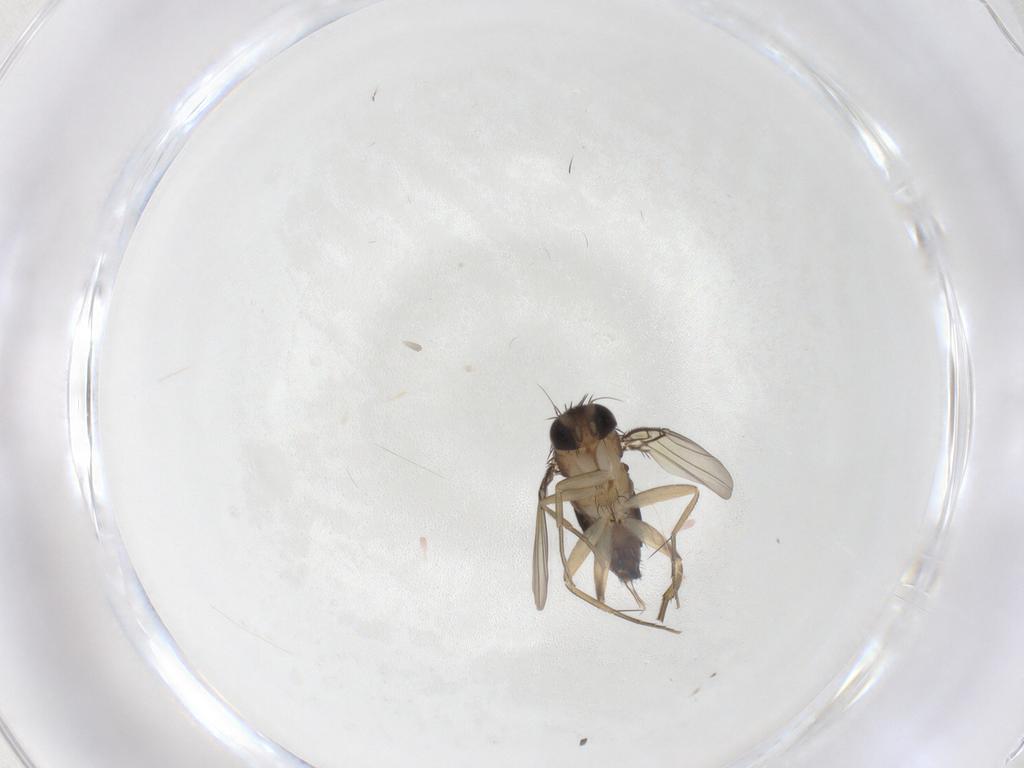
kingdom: Animalia
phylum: Arthropoda
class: Insecta
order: Diptera
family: Phoridae
